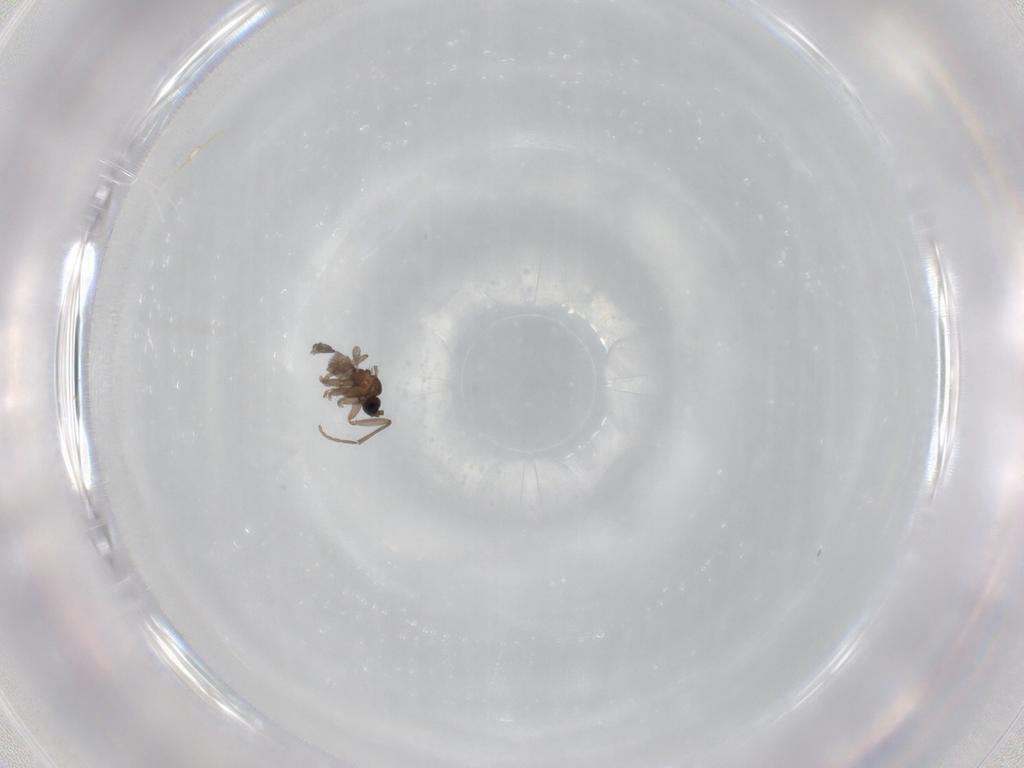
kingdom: Animalia
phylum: Arthropoda
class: Insecta
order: Diptera
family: Sciaridae
